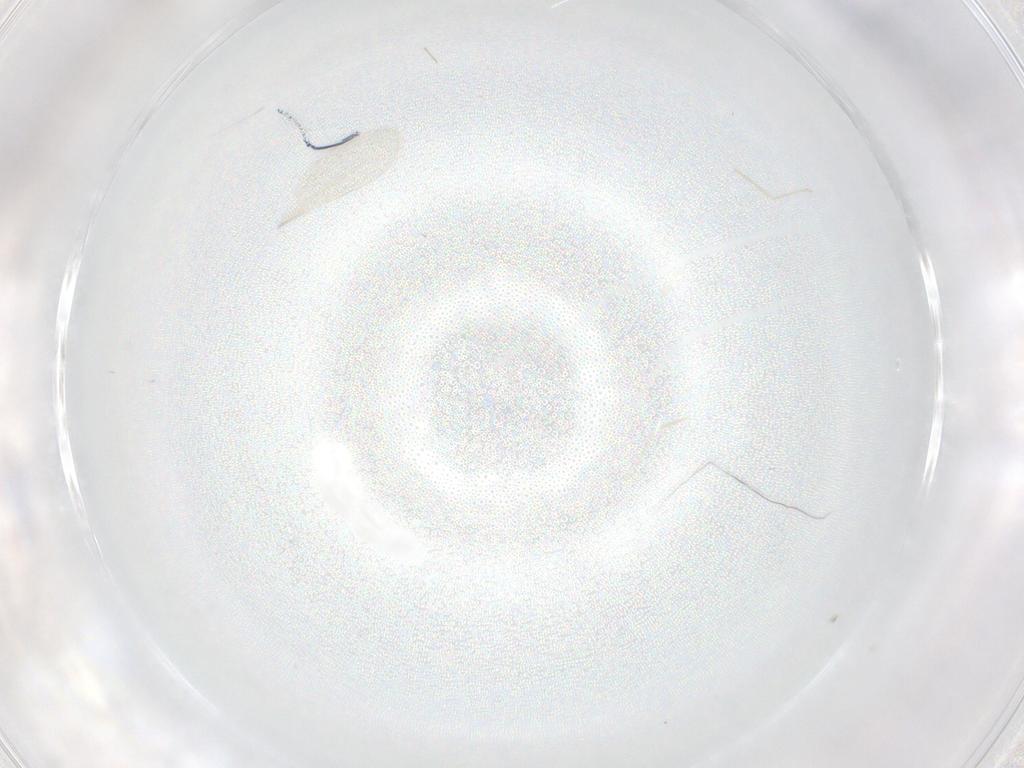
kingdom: Animalia
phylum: Arthropoda
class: Insecta
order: Diptera
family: Cecidomyiidae
